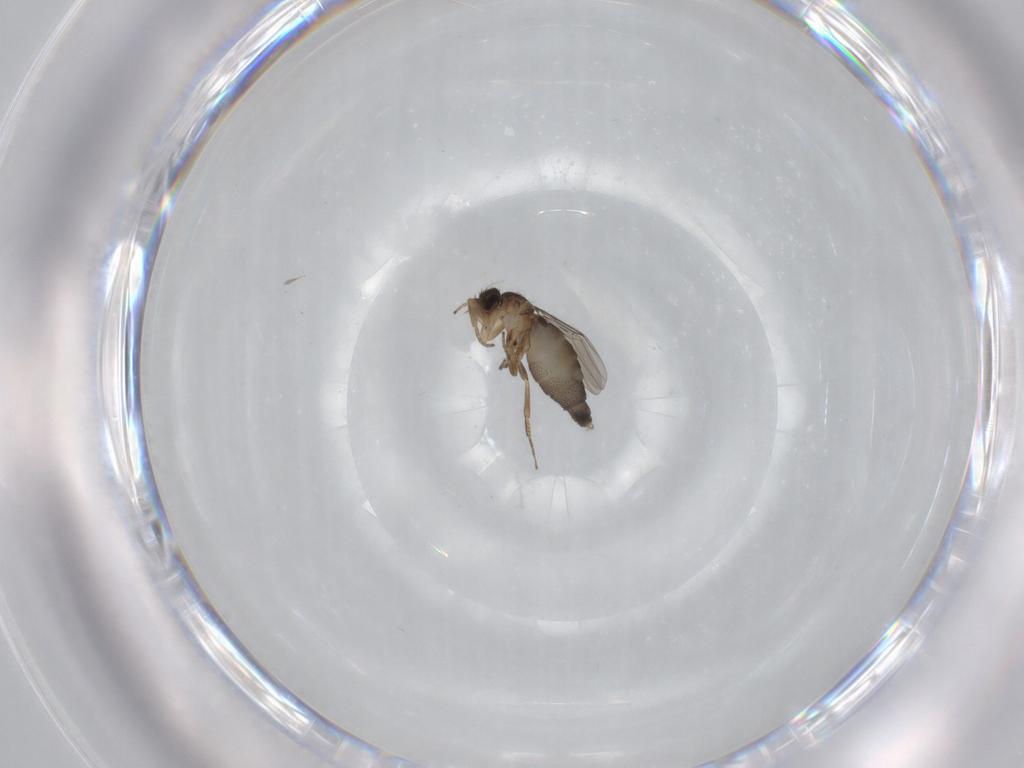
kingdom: Animalia
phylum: Arthropoda
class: Insecta
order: Diptera
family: Phoridae
